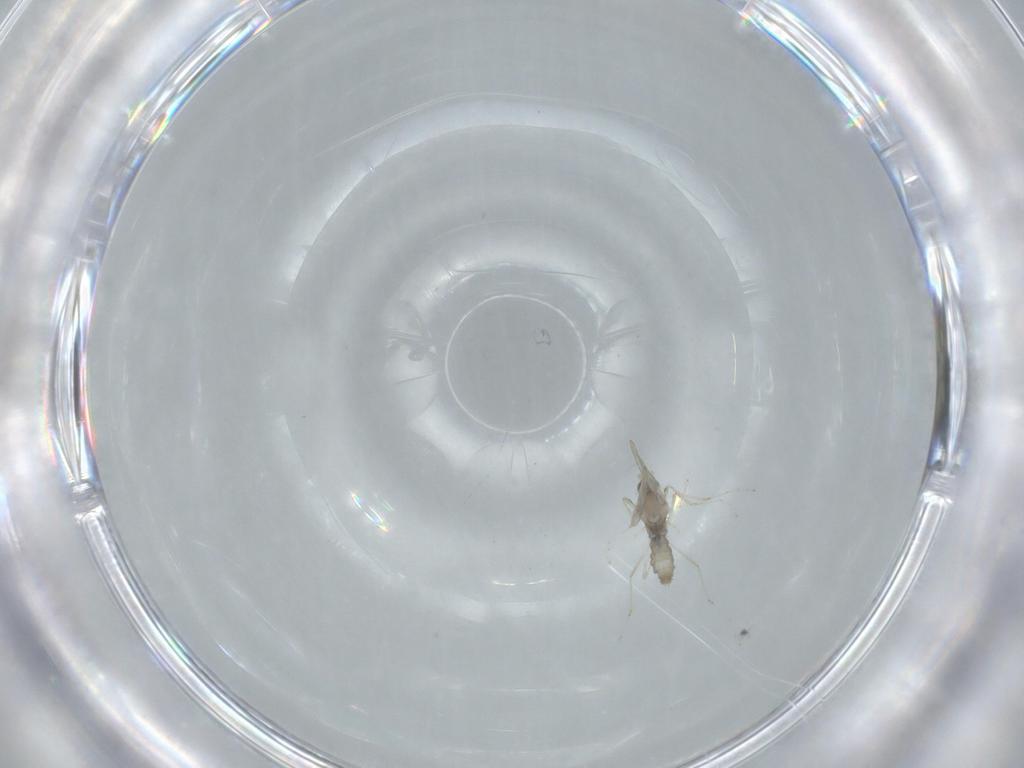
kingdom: Animalia
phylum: Arthropoda
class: Insecta
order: Diptera
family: Cecidomyiidae
